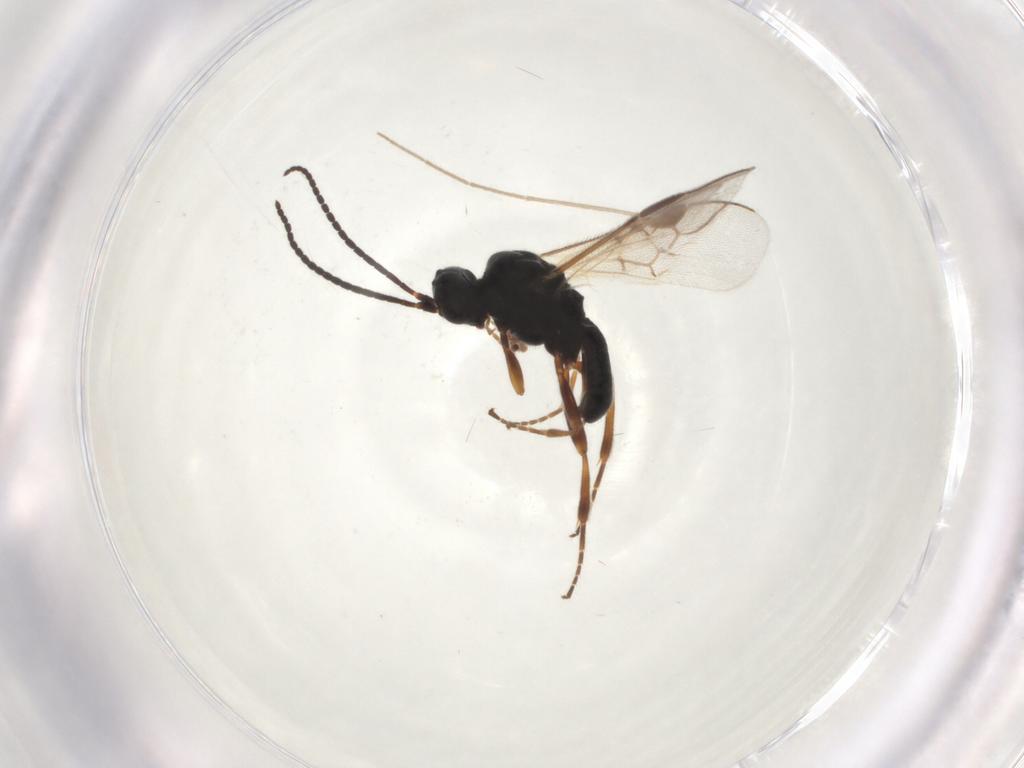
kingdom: Animalia
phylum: Arthropoda
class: Insecta
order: Hymenoptera
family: Braconidae
